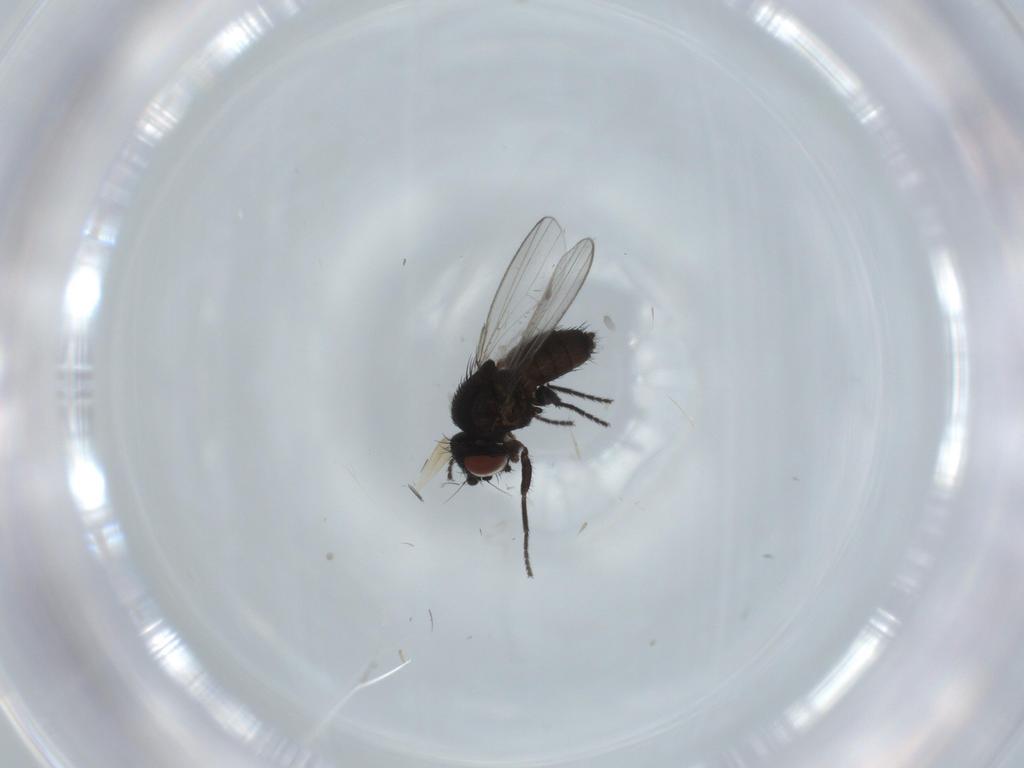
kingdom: Animalia
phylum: Arthropoda
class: Insecta
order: Diptera
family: Milichiidae
